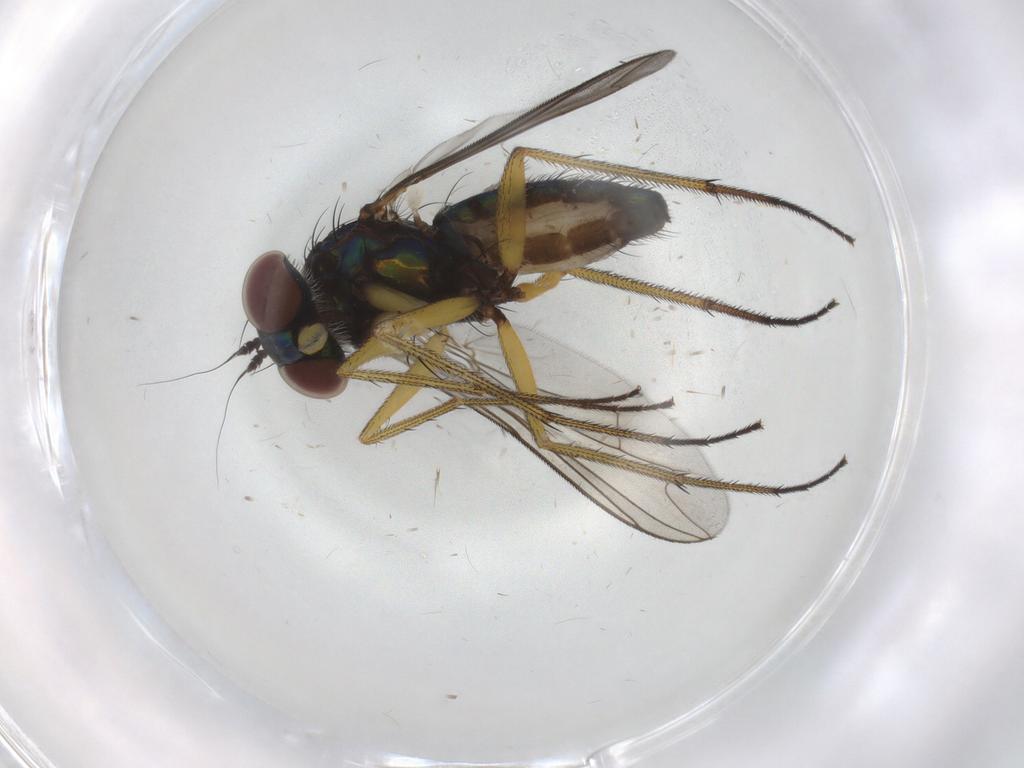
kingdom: Animalia
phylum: Arthropoda
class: Insecta
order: Diptera
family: Dolichopodidae
